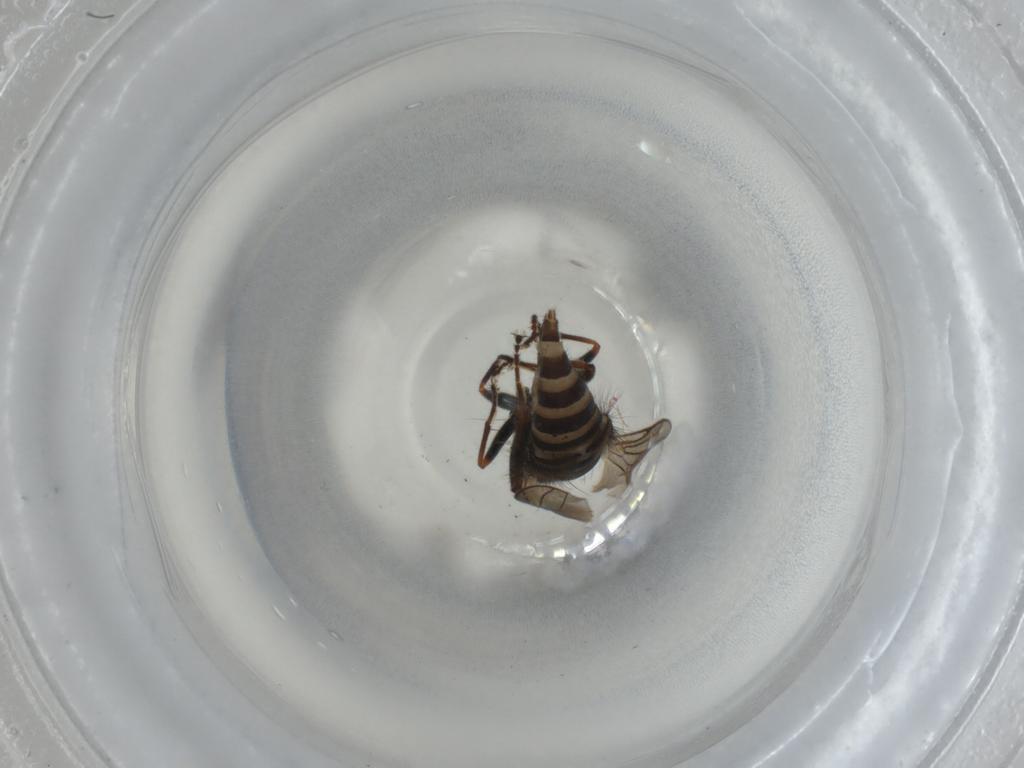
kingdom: Animalia
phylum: Arthropoda
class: Insecta
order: Diptera
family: Hybotidae
